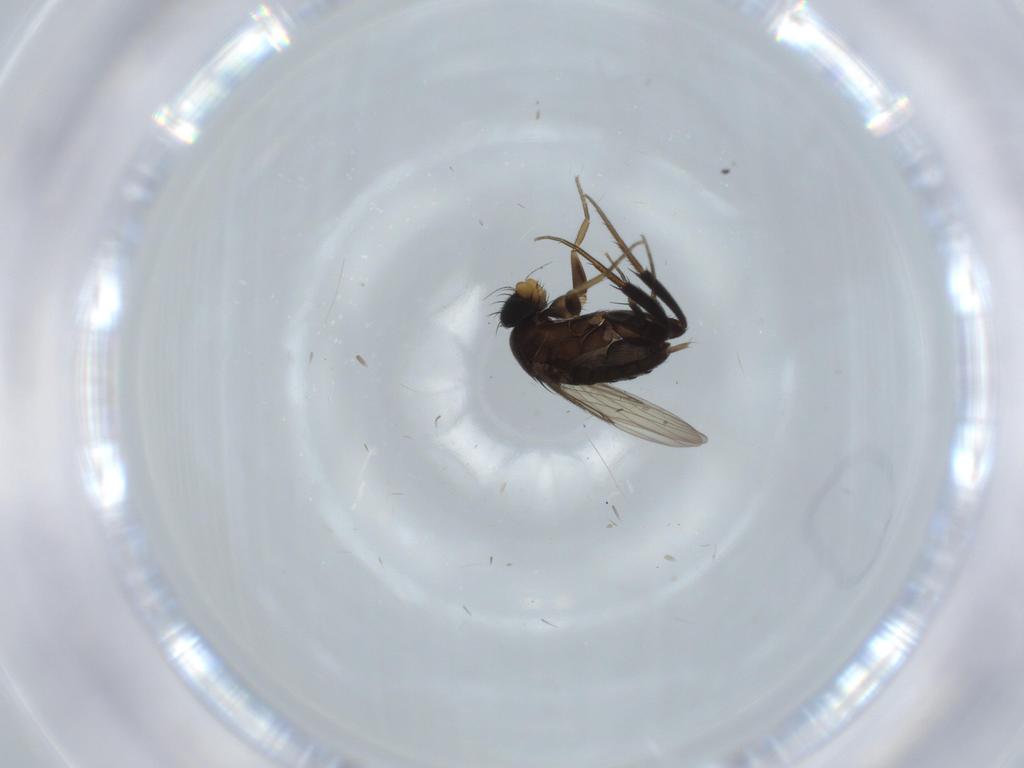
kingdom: Animalia
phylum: Arthropoda
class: Insecta
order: Diptera
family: Phoridae
